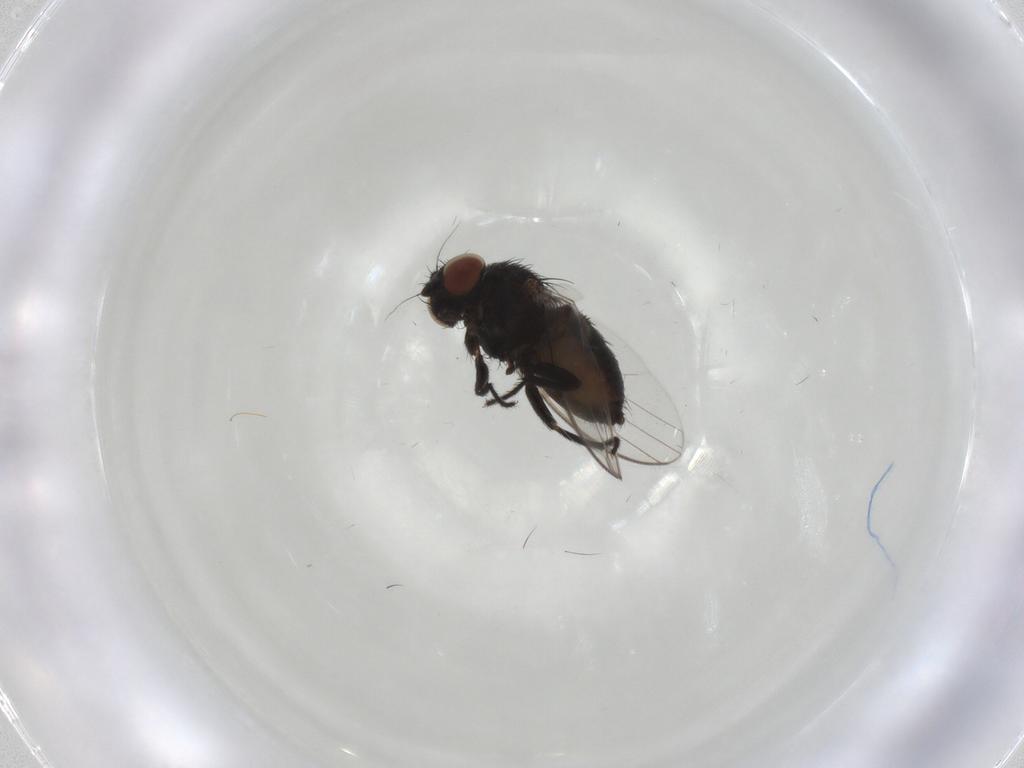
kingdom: Animalia
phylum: Arthropoda
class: Insecta
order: Diptera
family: Milichiidae
